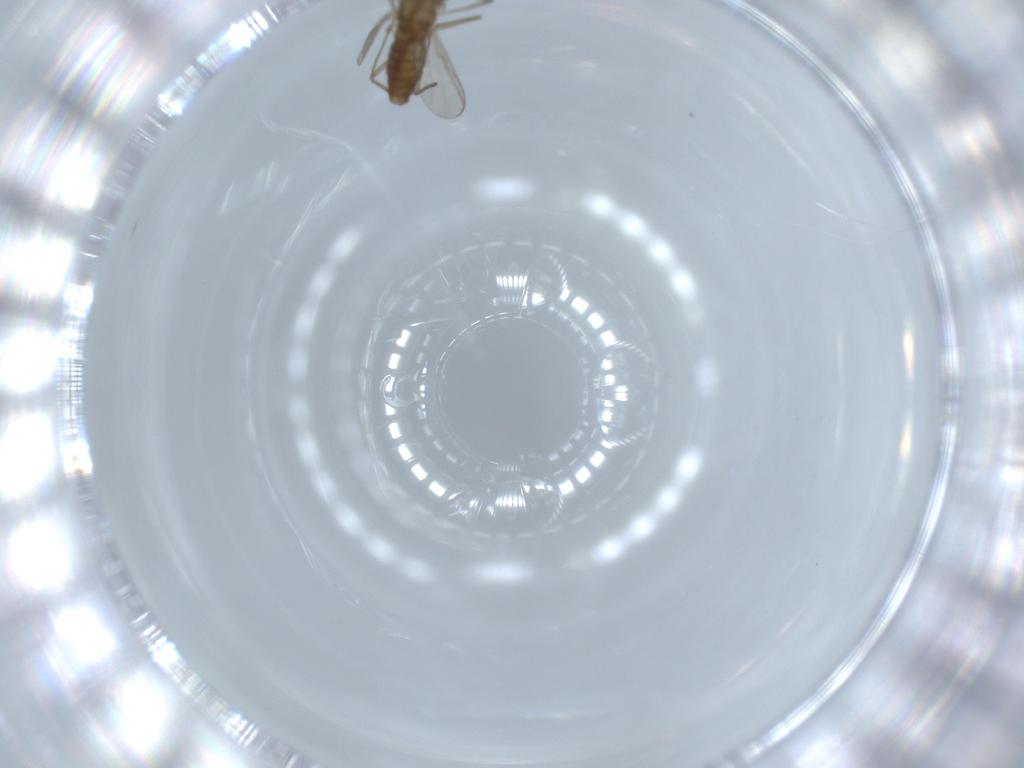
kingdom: Animalia
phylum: Arthropoda
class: Insecta
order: Diptera
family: Chironomidae
